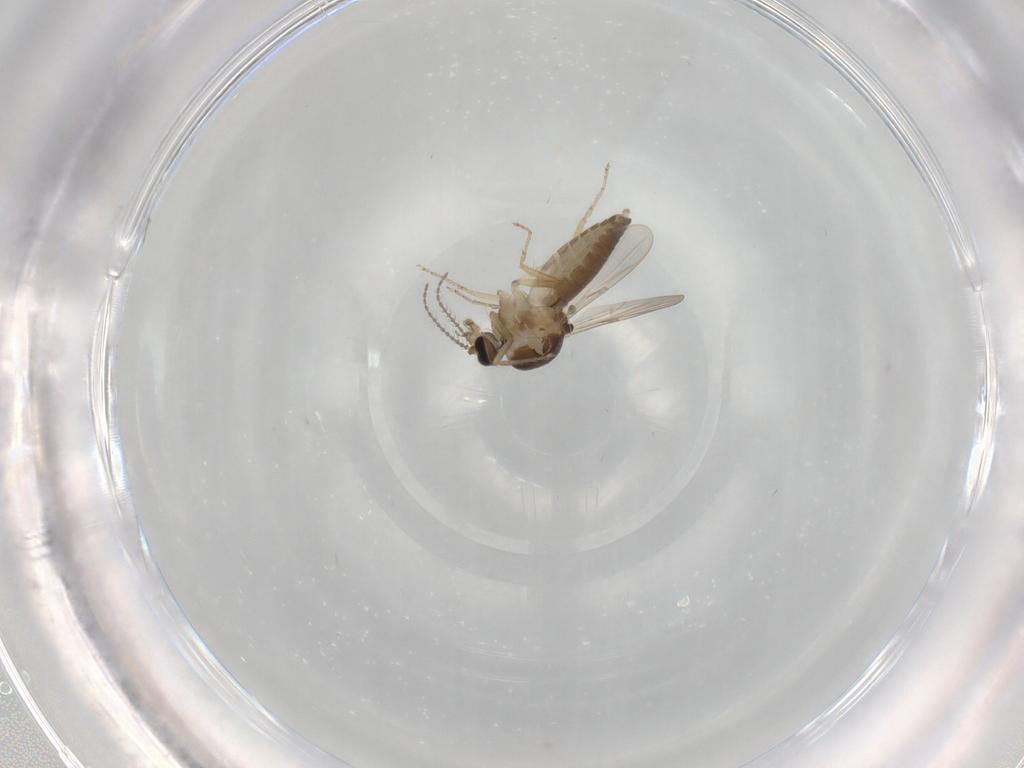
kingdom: Animalia
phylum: Arthropoda
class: Insecta
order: Diptera
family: Ceratopogonidae
